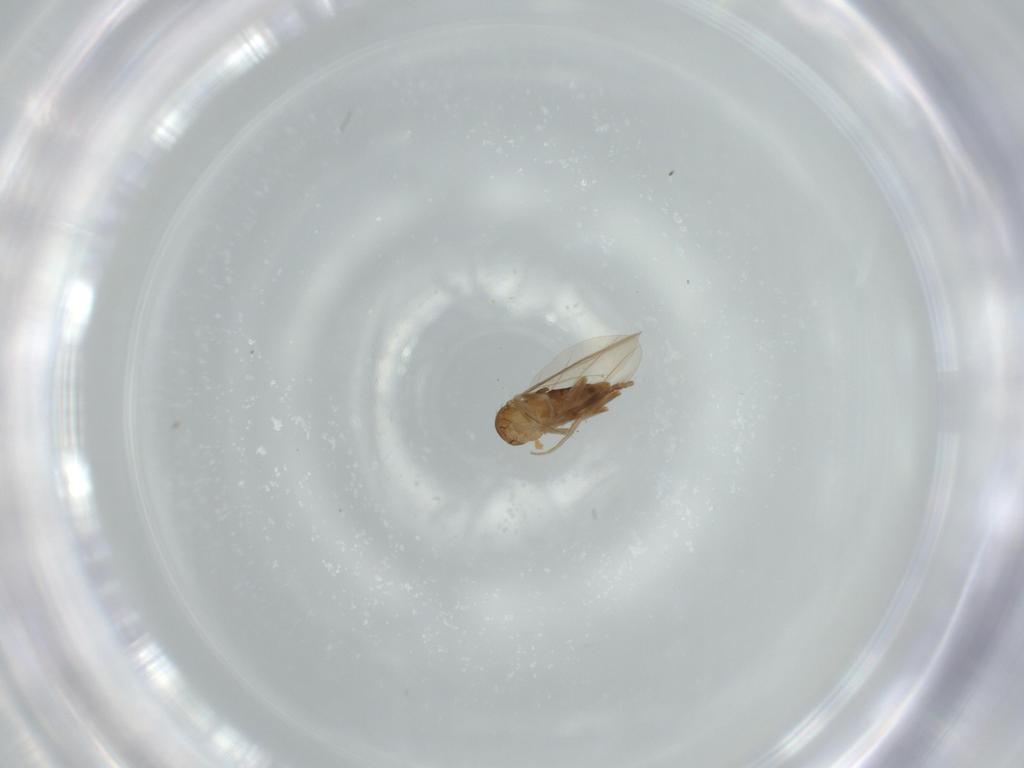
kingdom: Animalia
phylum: Arthropoda
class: Insecta
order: Diptera
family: Phoridae
